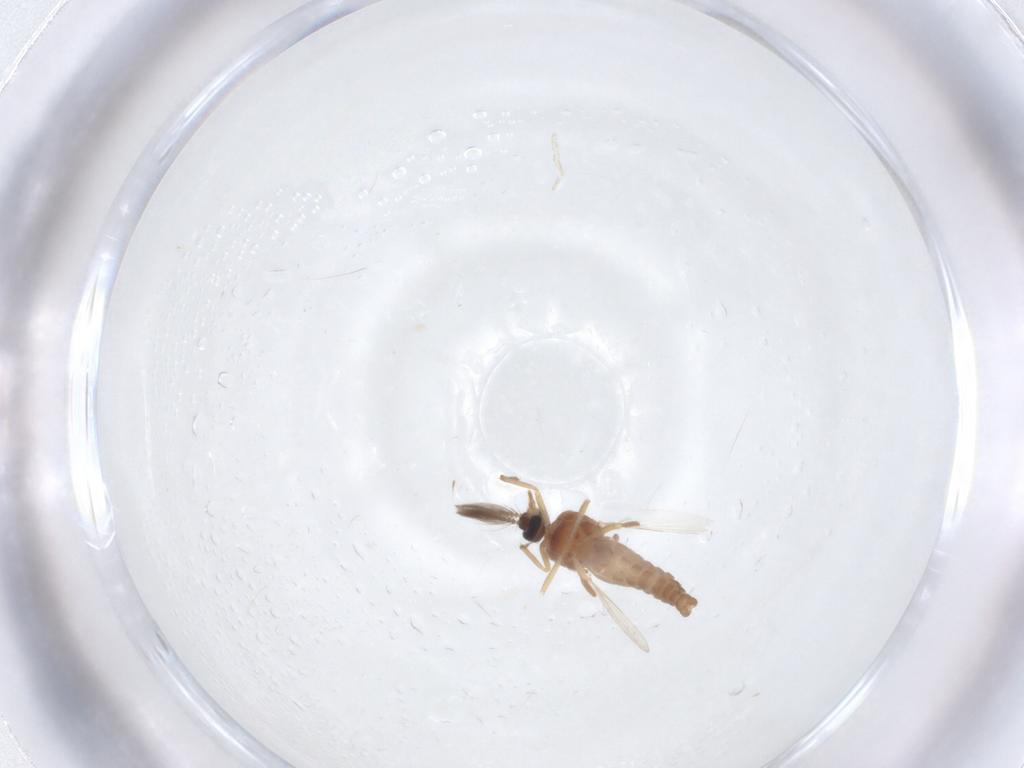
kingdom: Animalia
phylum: Arthropoda
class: Insecta
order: Diptera
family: Ceratopogonidae
